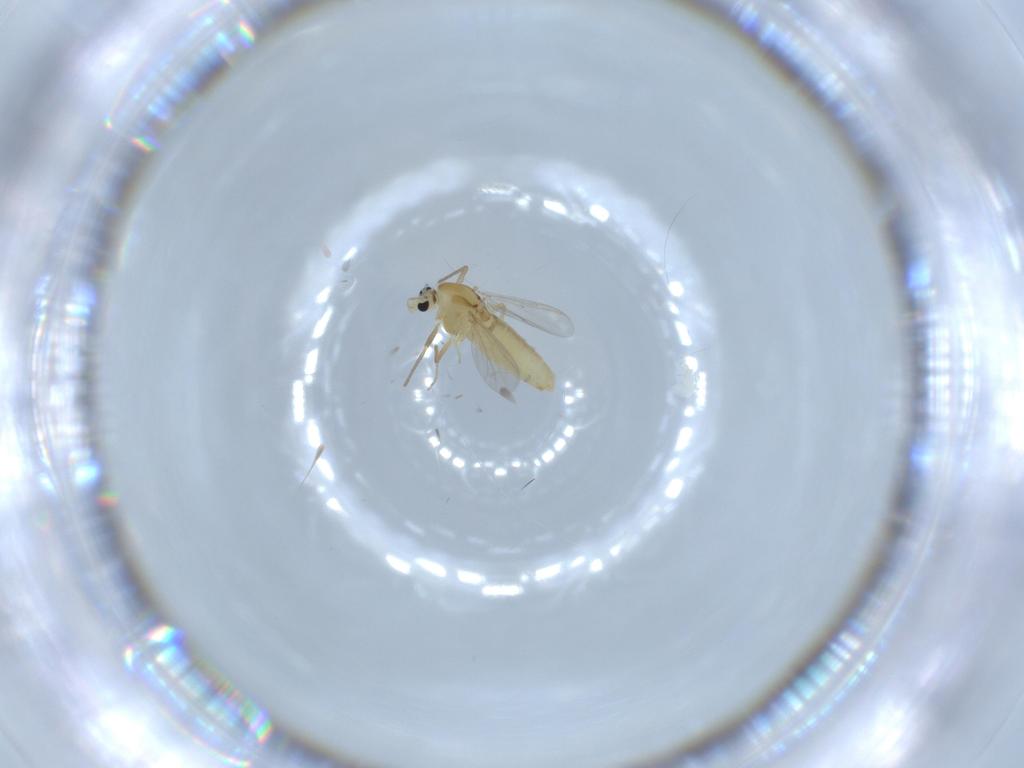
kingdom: Animalia
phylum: Arthropoda
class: Insecta
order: Diptera
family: Chironomidae
